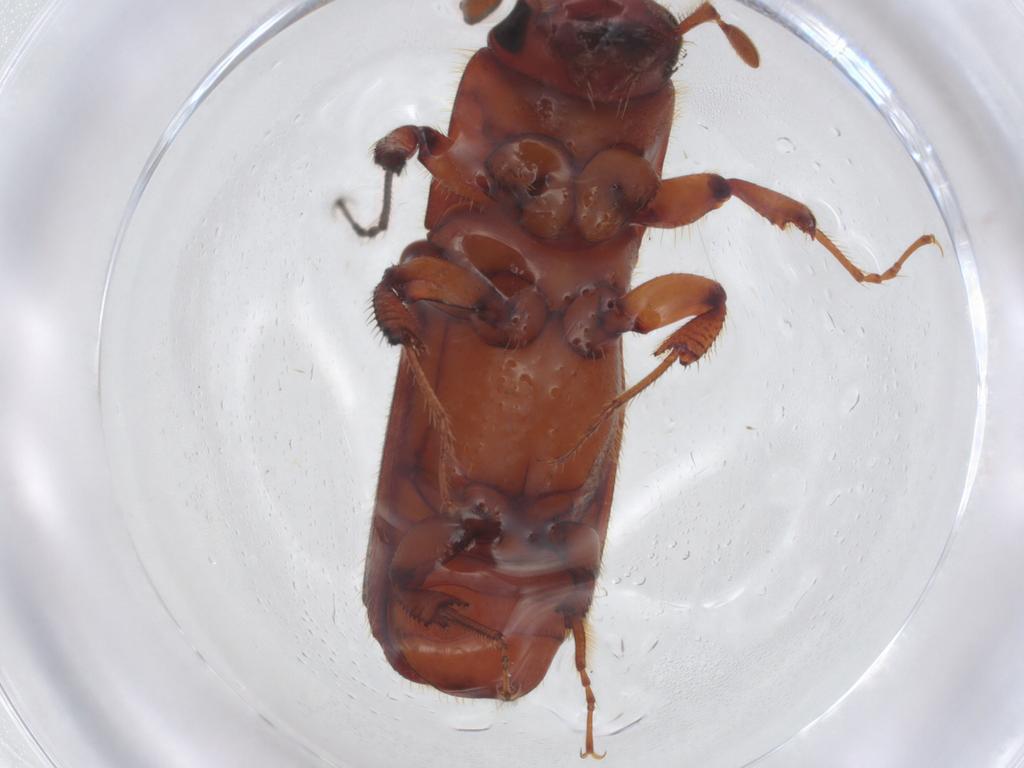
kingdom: Animalia
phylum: Arthropoda
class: Insecta
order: Coleoptera
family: Curculionidae
